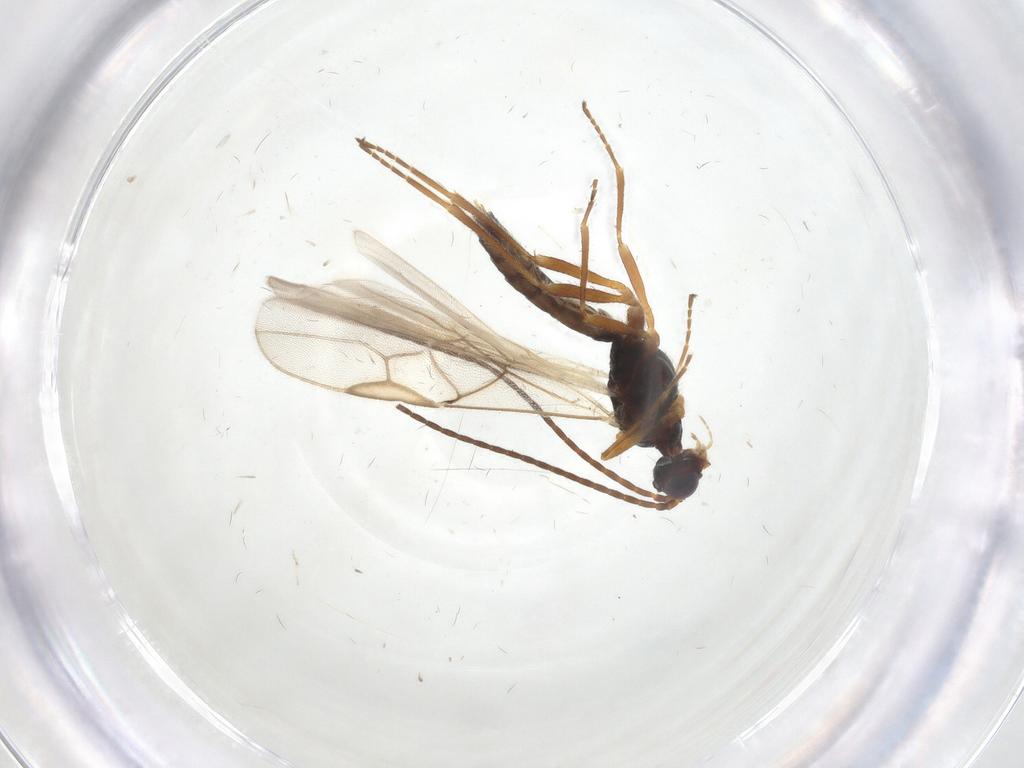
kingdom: Animalia
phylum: Arthropoda
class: Insecta
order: Hymenoptera
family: Braconidae
